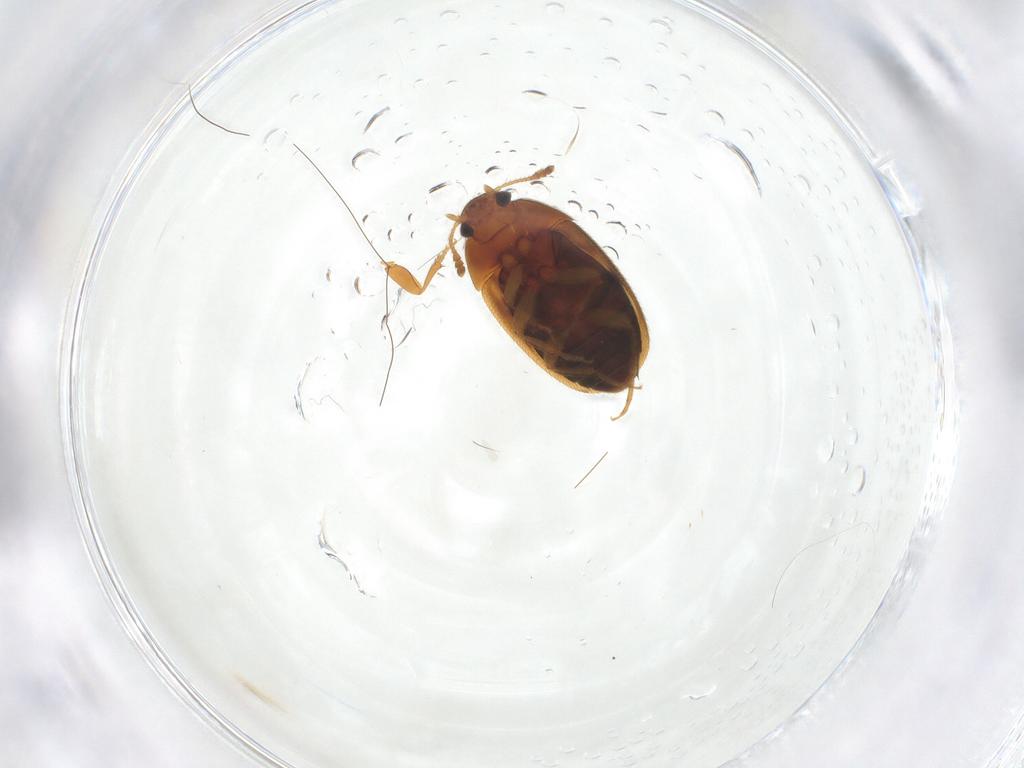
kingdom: Animalia
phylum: Arthropoda
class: Insecta
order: Coleoptera
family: Mycetophagidae
